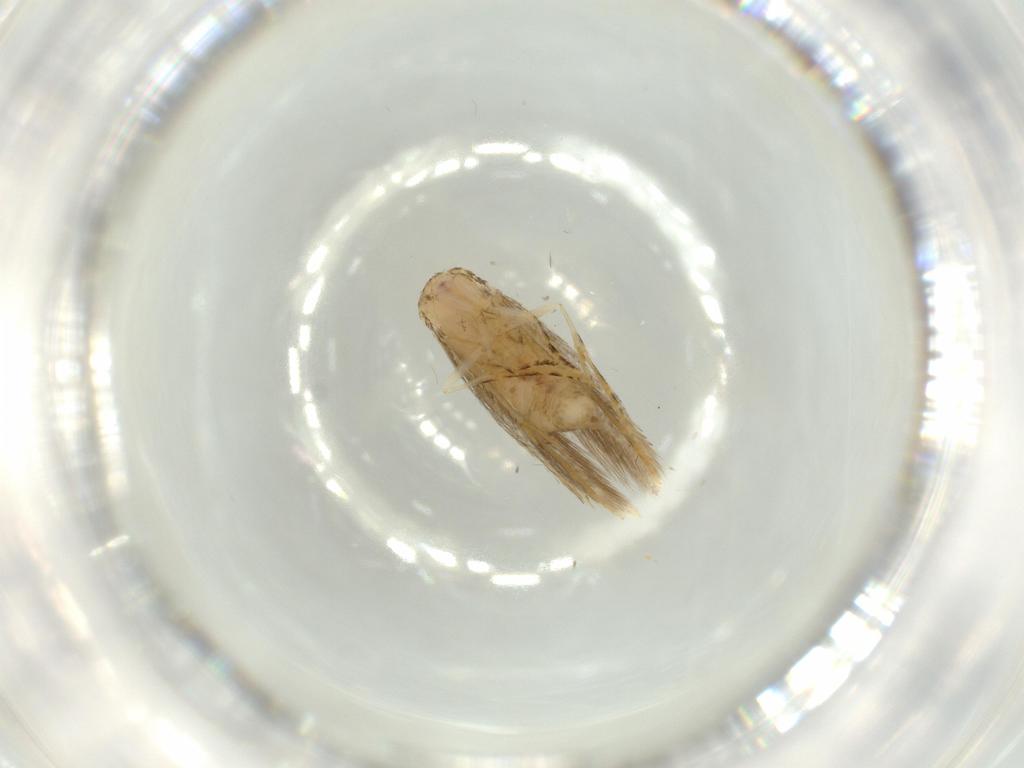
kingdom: Animalia
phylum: Arthropoda
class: Insecta
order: Lepidoptera
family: Tineidae
